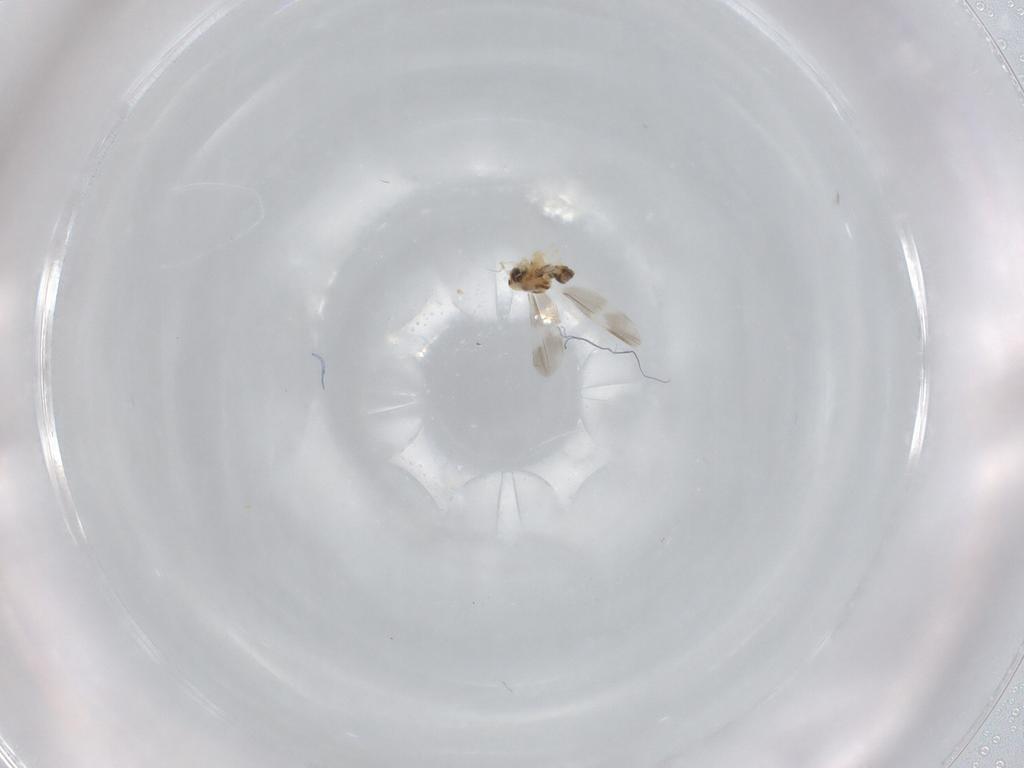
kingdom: Animalia
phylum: Arthropoda
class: Insecta
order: Hemiptera
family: Aleyrodidae
